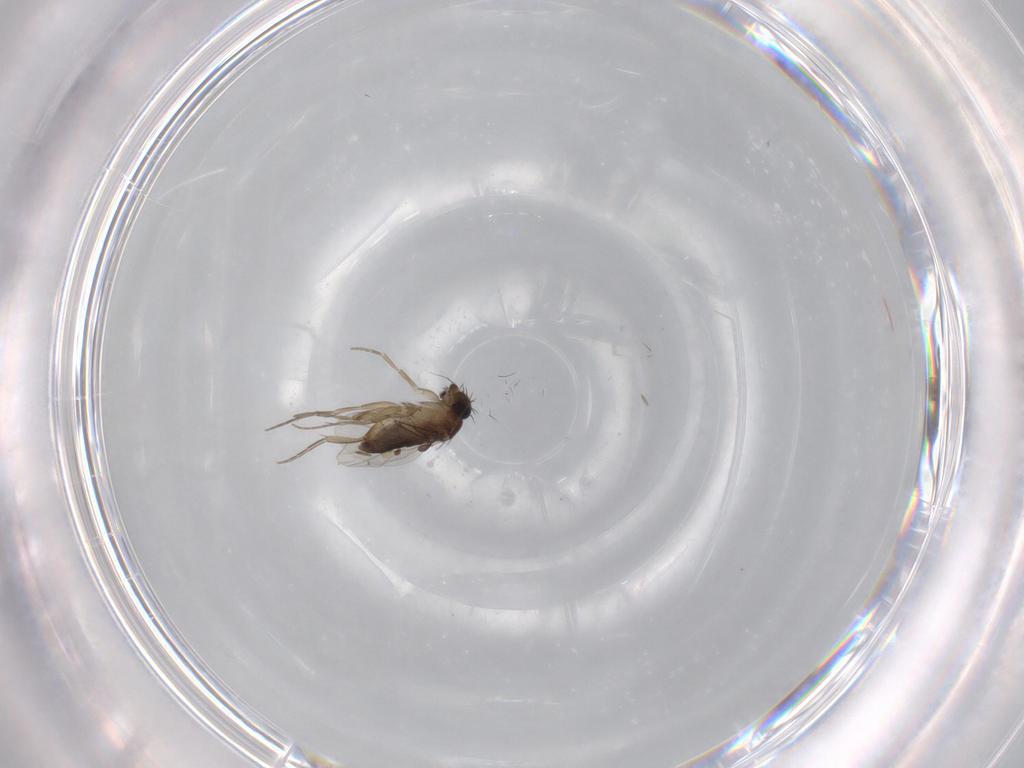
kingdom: Animalia
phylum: Arthropoda
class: Insecta
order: Diptera
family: Phoridae
